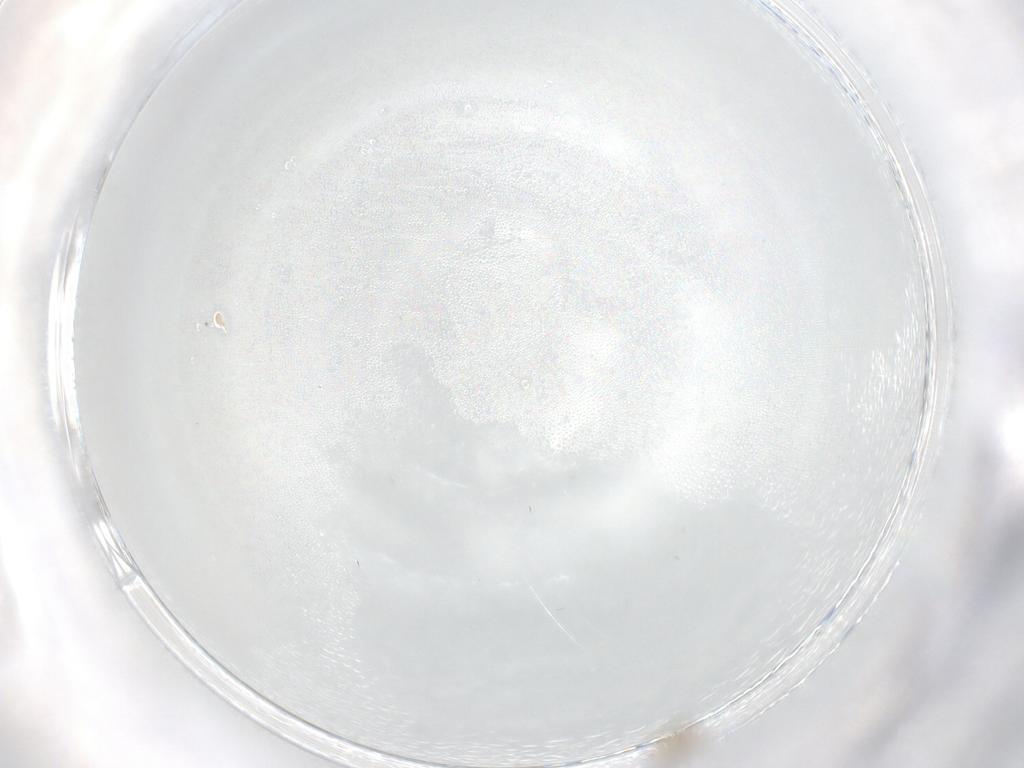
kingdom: Animalia
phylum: Arthropoda
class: Insecta
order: Diptera
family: Cecidomyiidae
